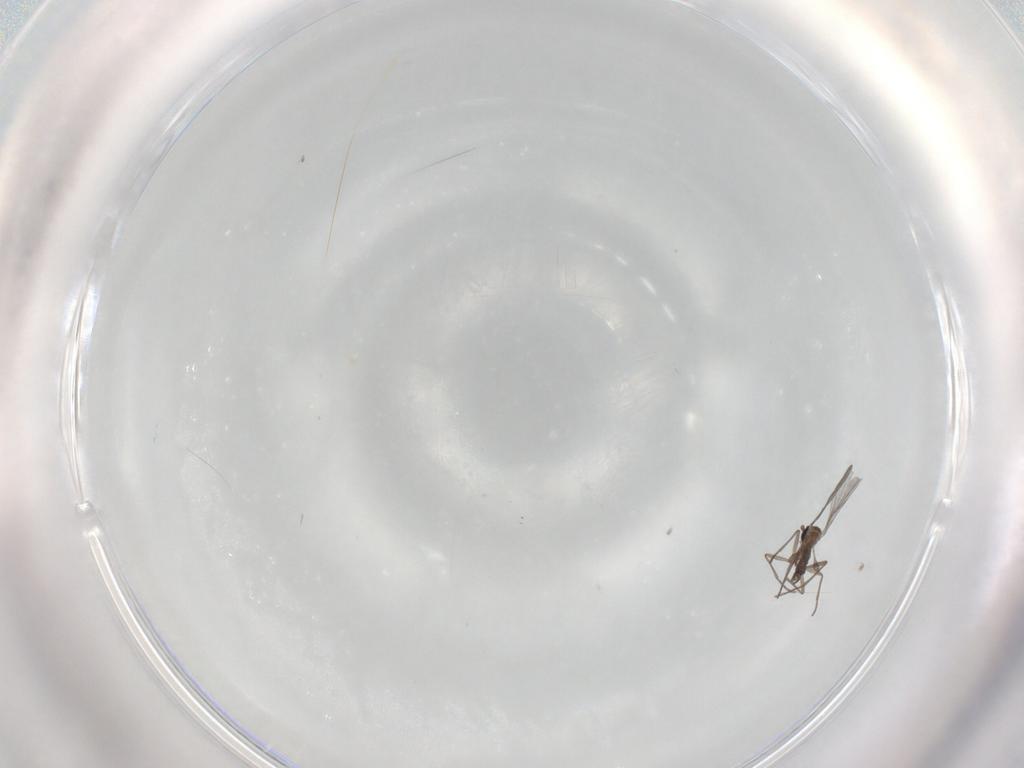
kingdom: Animalia
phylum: Arthropoda
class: Insecta
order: Diptera
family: Sciaridae
